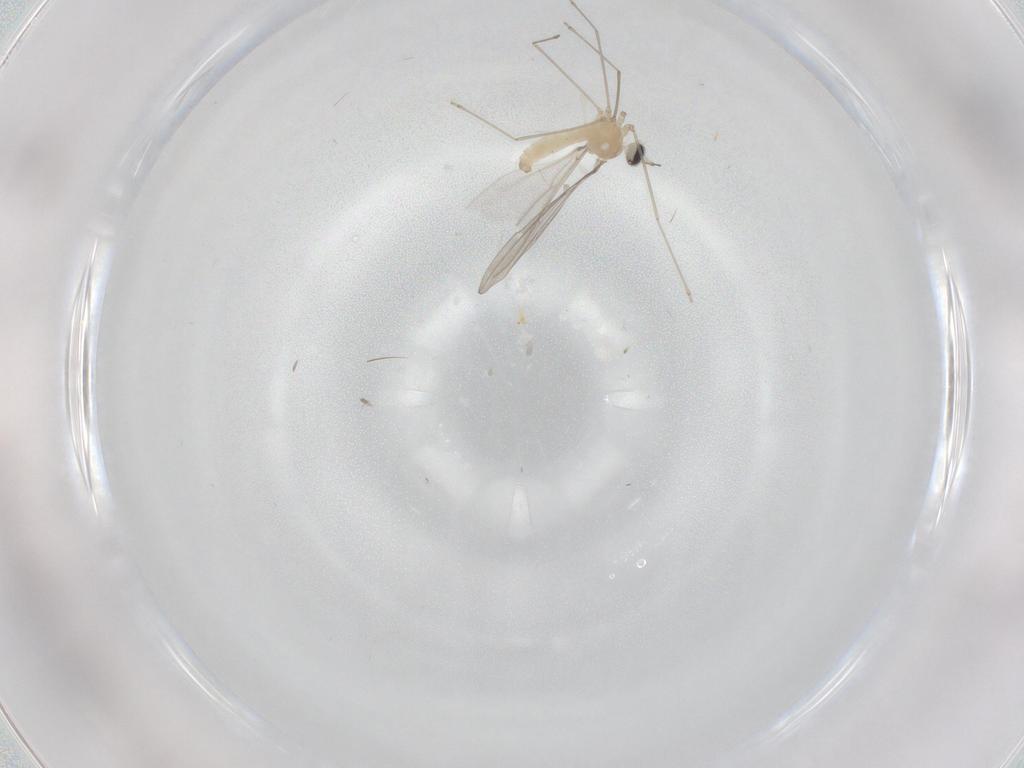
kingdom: Animalia
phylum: Arthropoda
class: Insecta
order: Diptera
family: Cecidomyiidae
